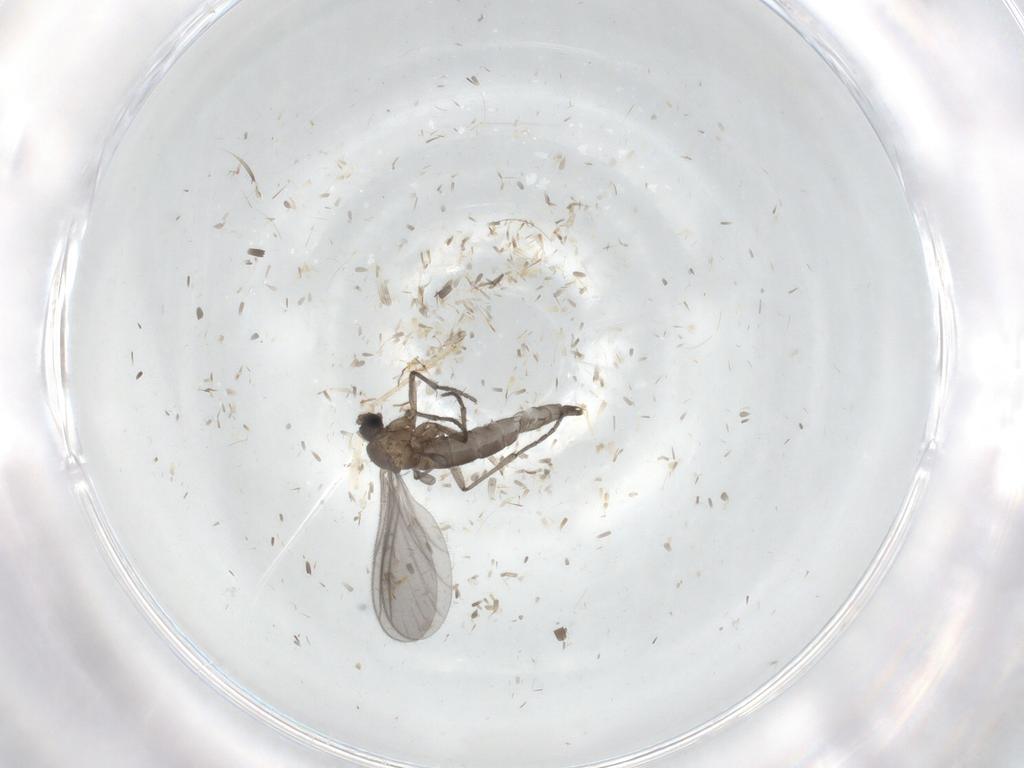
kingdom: Animalia
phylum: Arthropoda
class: Insecta
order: Diptera
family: Sciaridae
